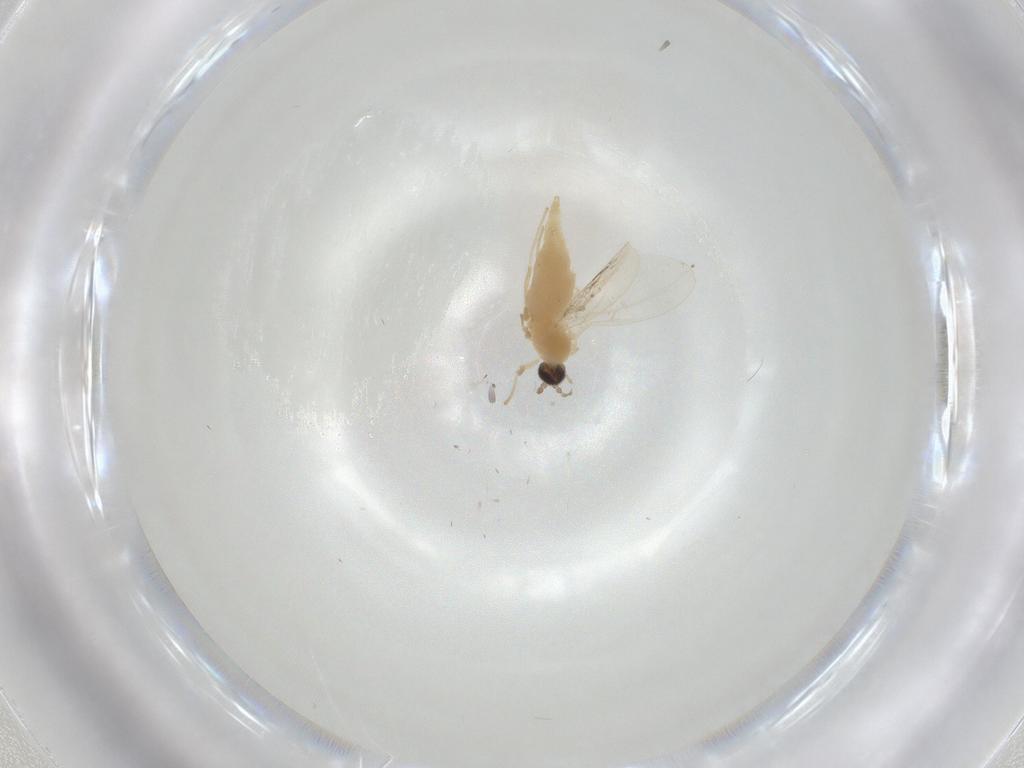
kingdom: Animalia
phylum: Arthropoda
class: Insecta
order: Diptera
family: Cecidomyiidae
